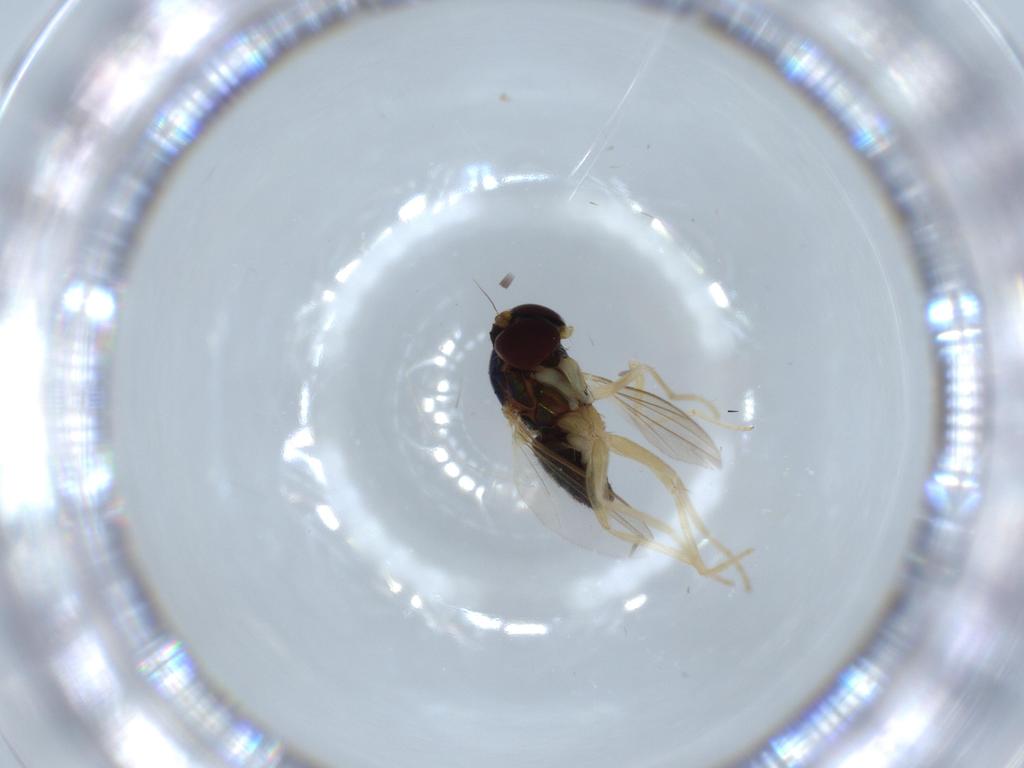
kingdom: Animalia
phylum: Arthropoda
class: Insecta
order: Diptera
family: Dolichopodidae
